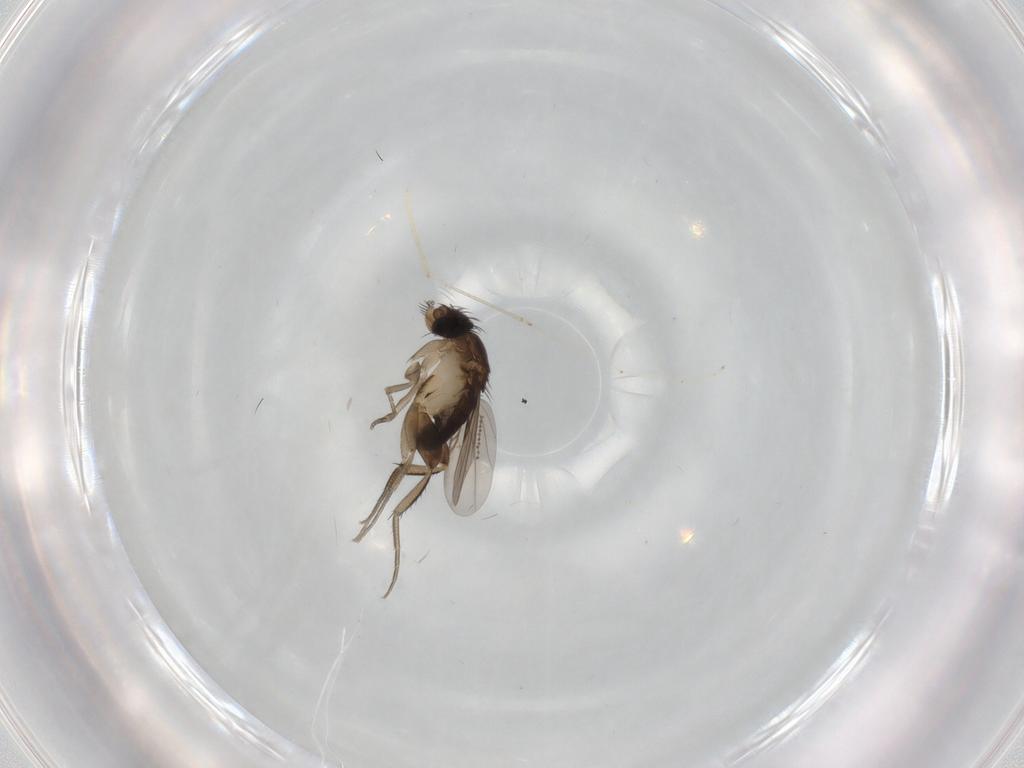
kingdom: Animalia
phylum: Arthropoda
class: Insecta
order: Diptera
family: Phoridae
